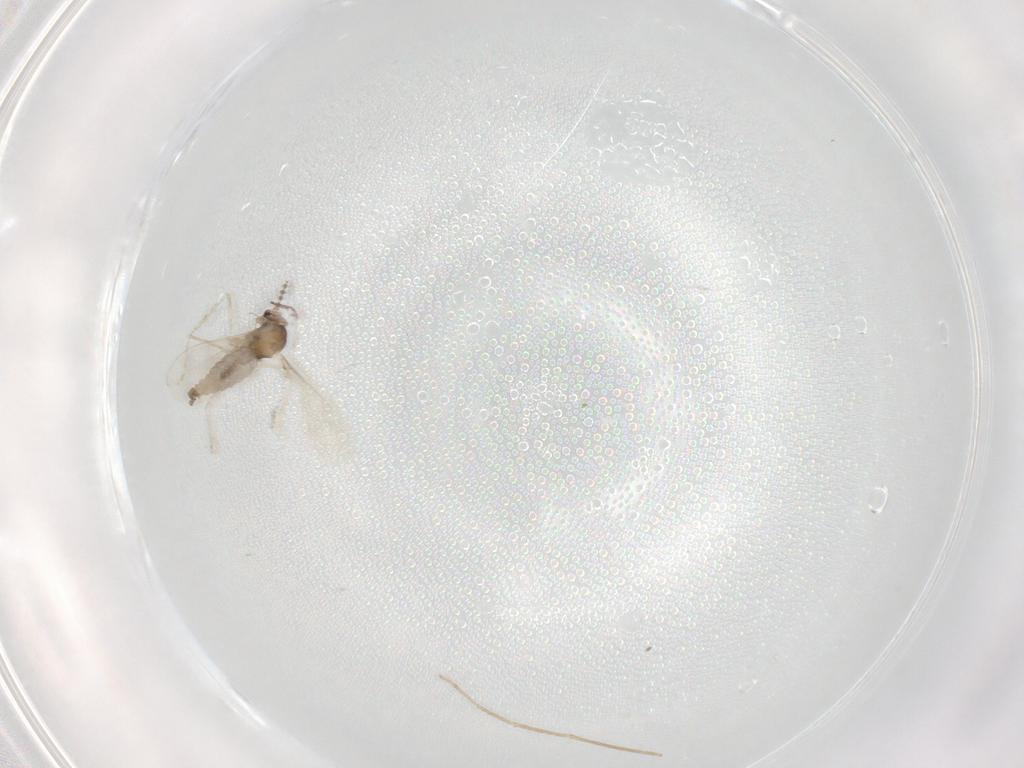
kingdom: Animalia
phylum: Arthropoda
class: Insecta
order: Diptera
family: Cecidomyiidae
